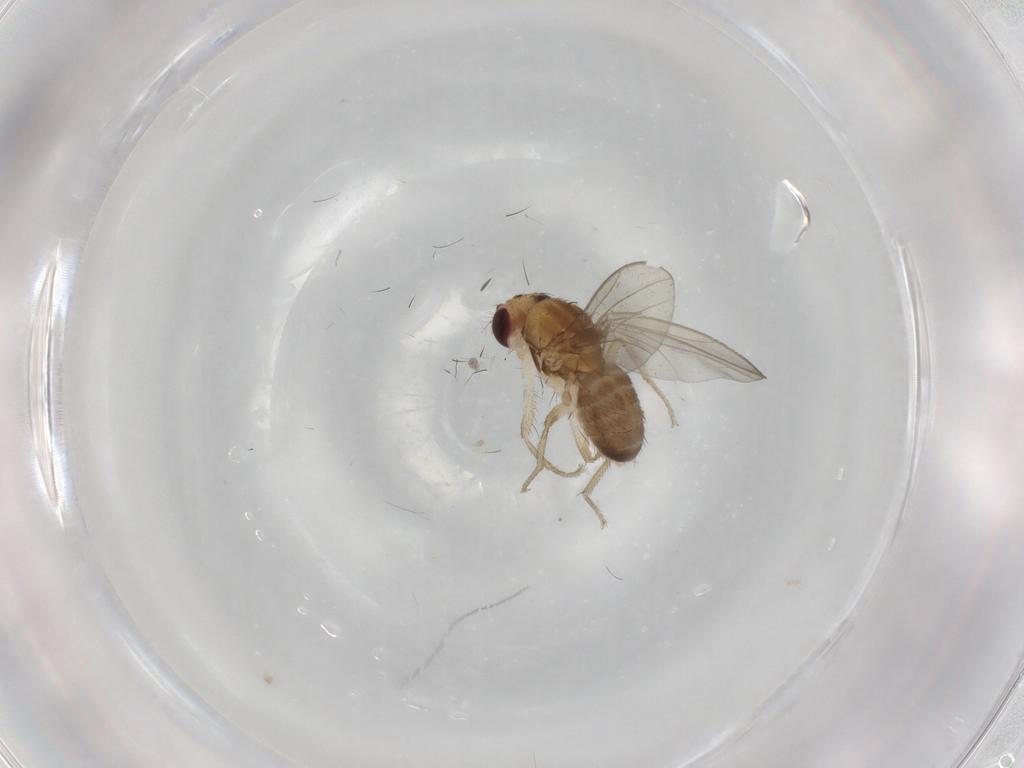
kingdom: Animalia
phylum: Arthropoda
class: Insecta
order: Diptera
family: Drosophilidae
